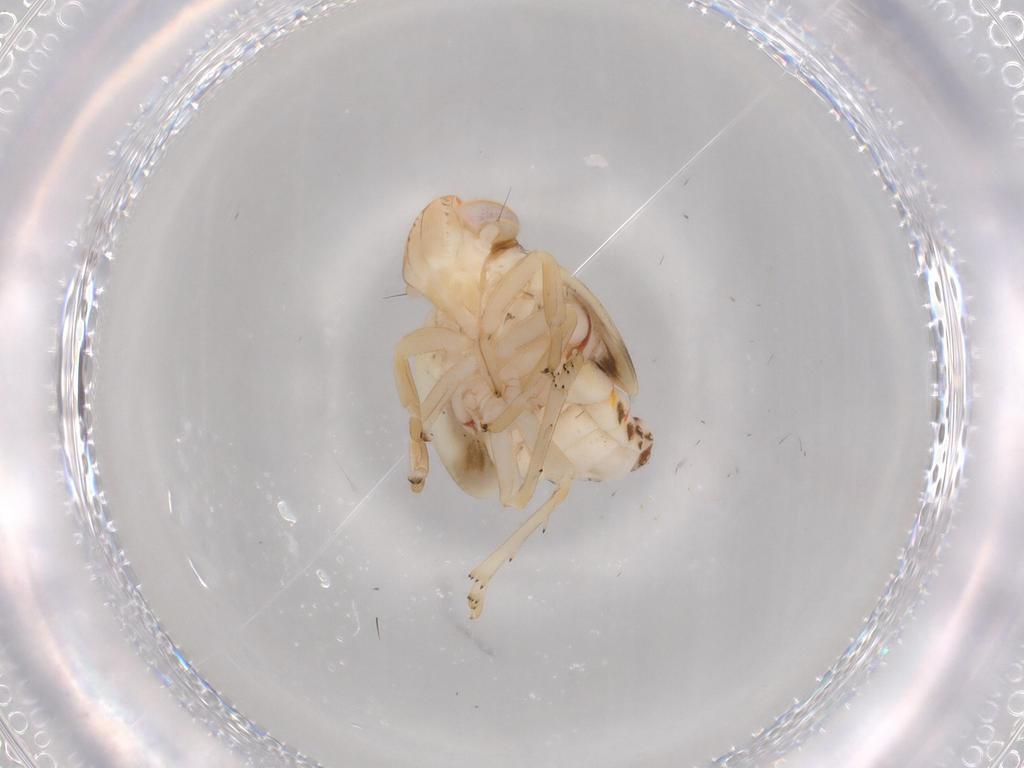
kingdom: Animalia
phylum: Arthropoda
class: Insecta
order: Hemiptera
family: Nogodinidae
